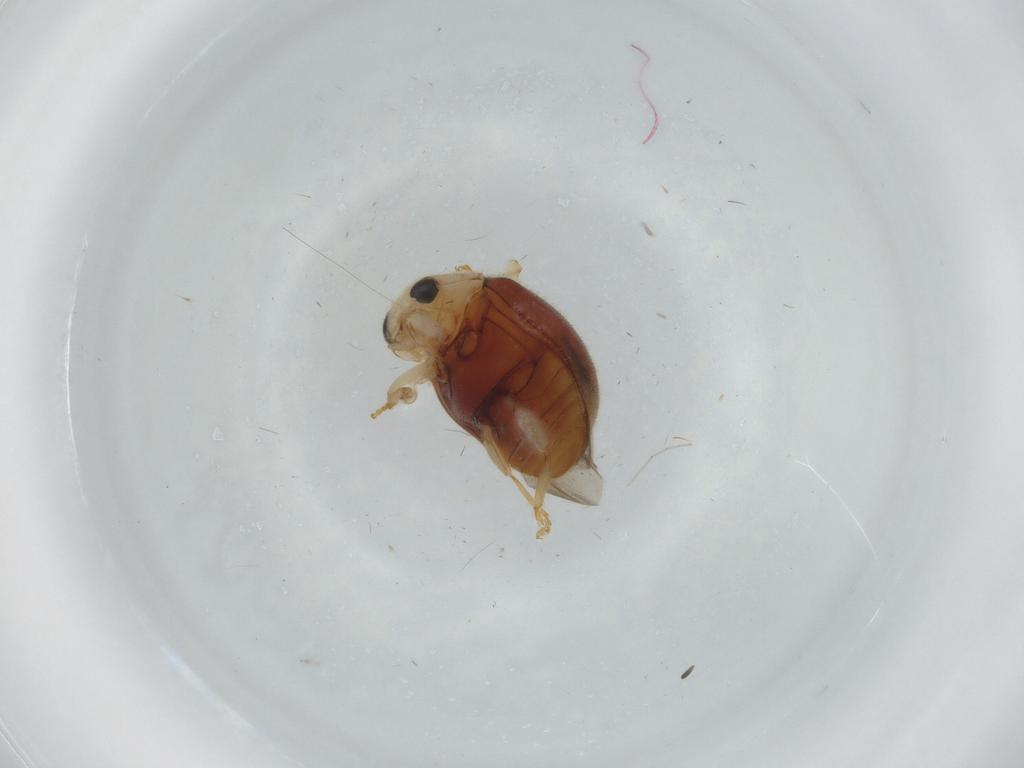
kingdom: Animalia
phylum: Arthropoda
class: Insecta
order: Coleoptera
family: Coccinellidae
